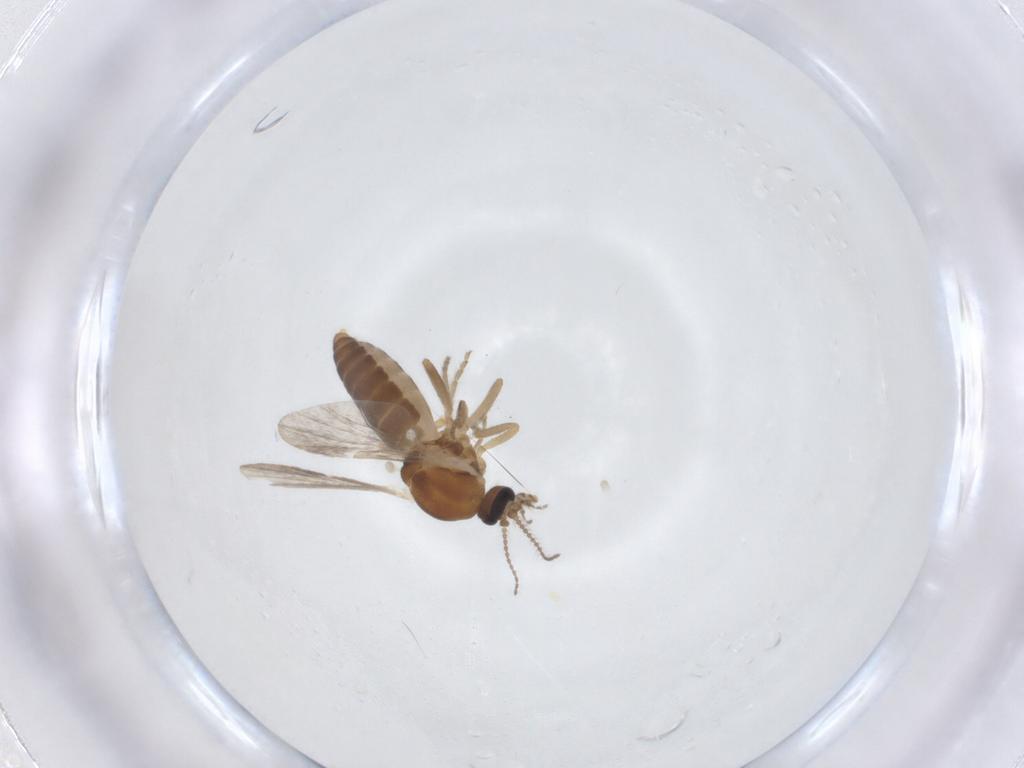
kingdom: Animalia
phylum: Arthropoda
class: Insecta
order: Diptera
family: Ceratopogonidae
